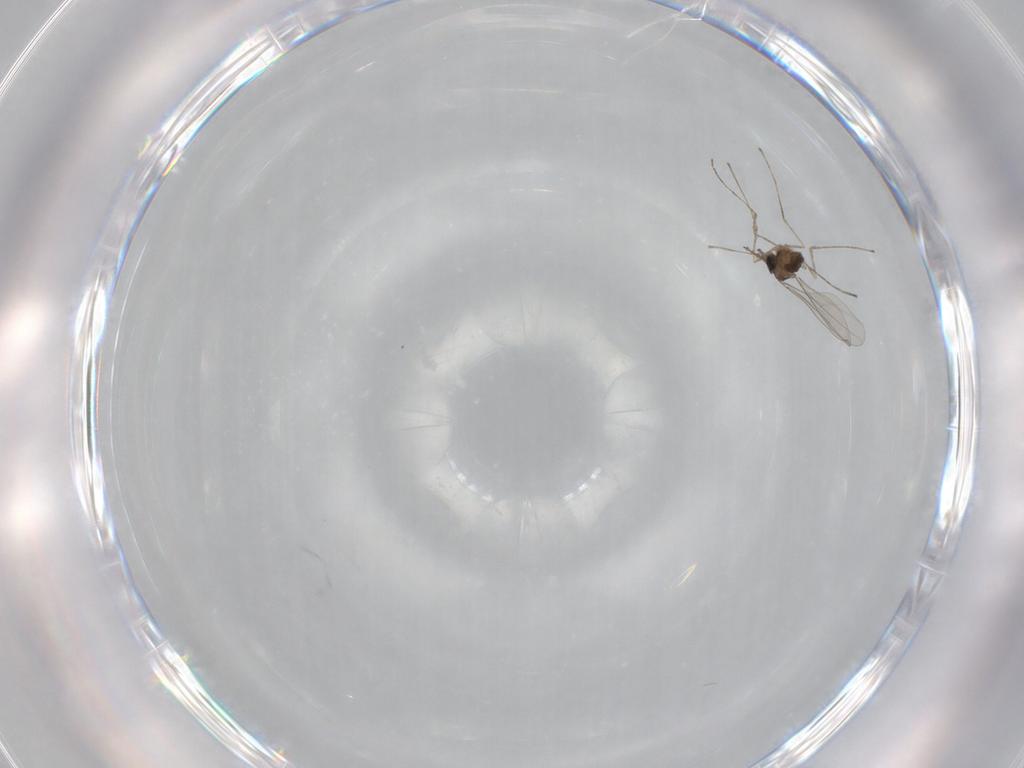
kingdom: Animalia
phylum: Arthropoda
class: Insecta
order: Diptera
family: Cecidomyiidae
